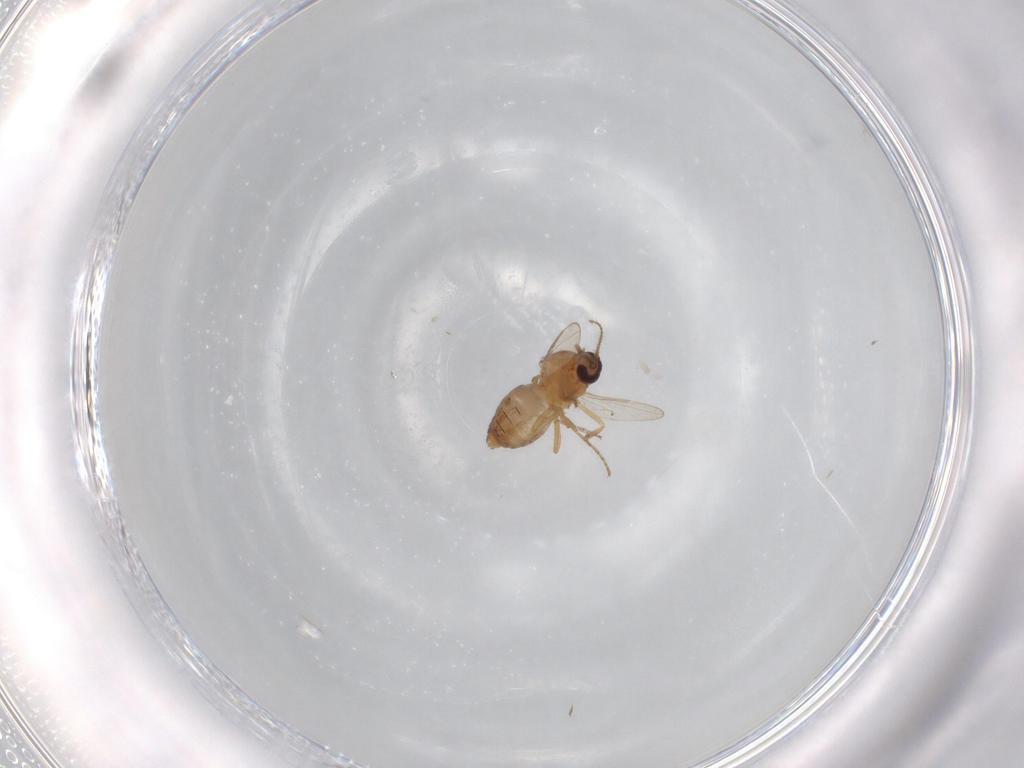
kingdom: Animalia
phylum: Arthropoda
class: Insecta
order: Diptera
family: Ceratopogonidae
